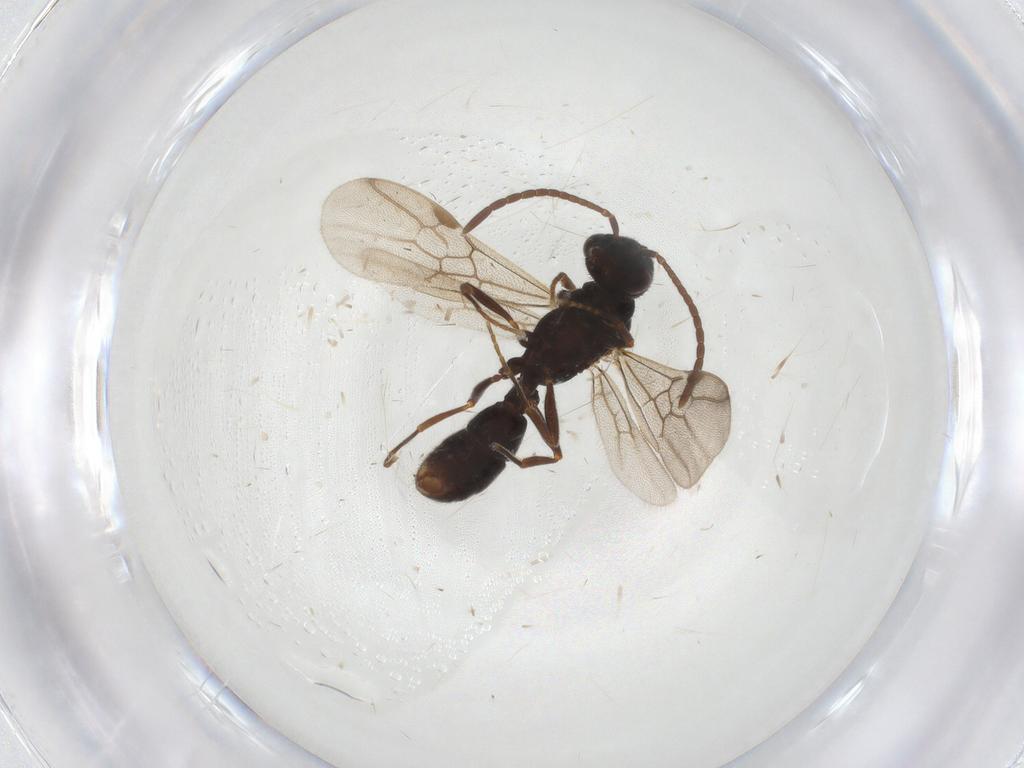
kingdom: Animalia
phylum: Arthropoda
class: Insecta
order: Hymenoptera
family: Formicidae
